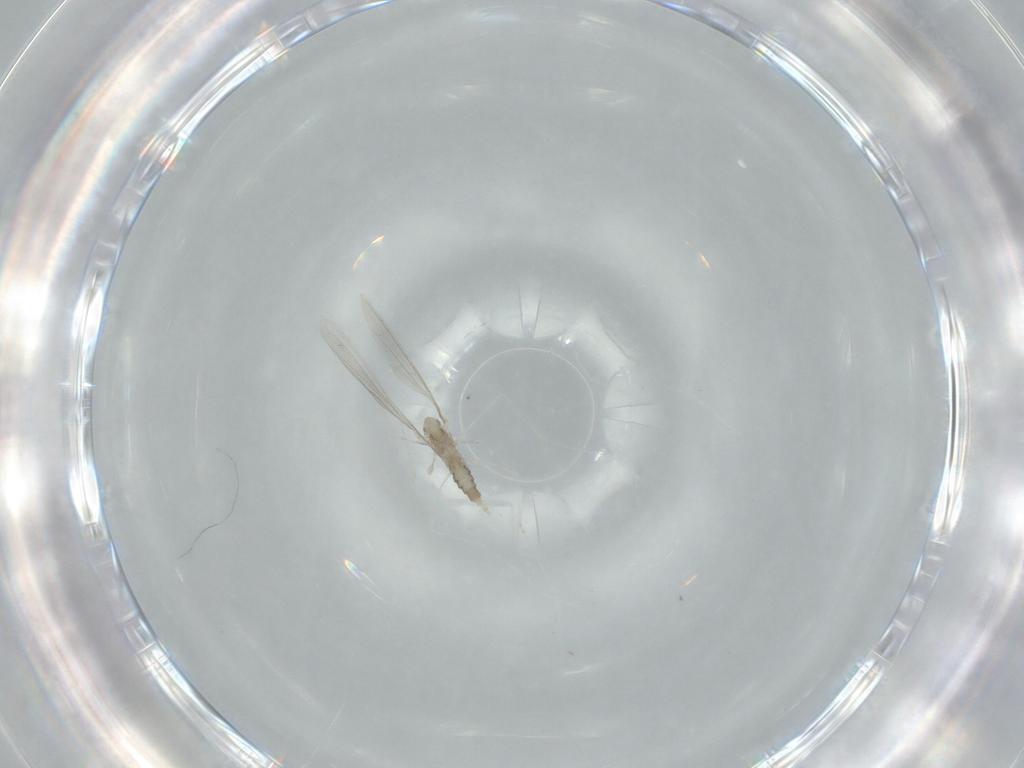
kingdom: Animalia
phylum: Arthropoda
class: Insecta
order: Diptera
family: Cecidomyiidae
